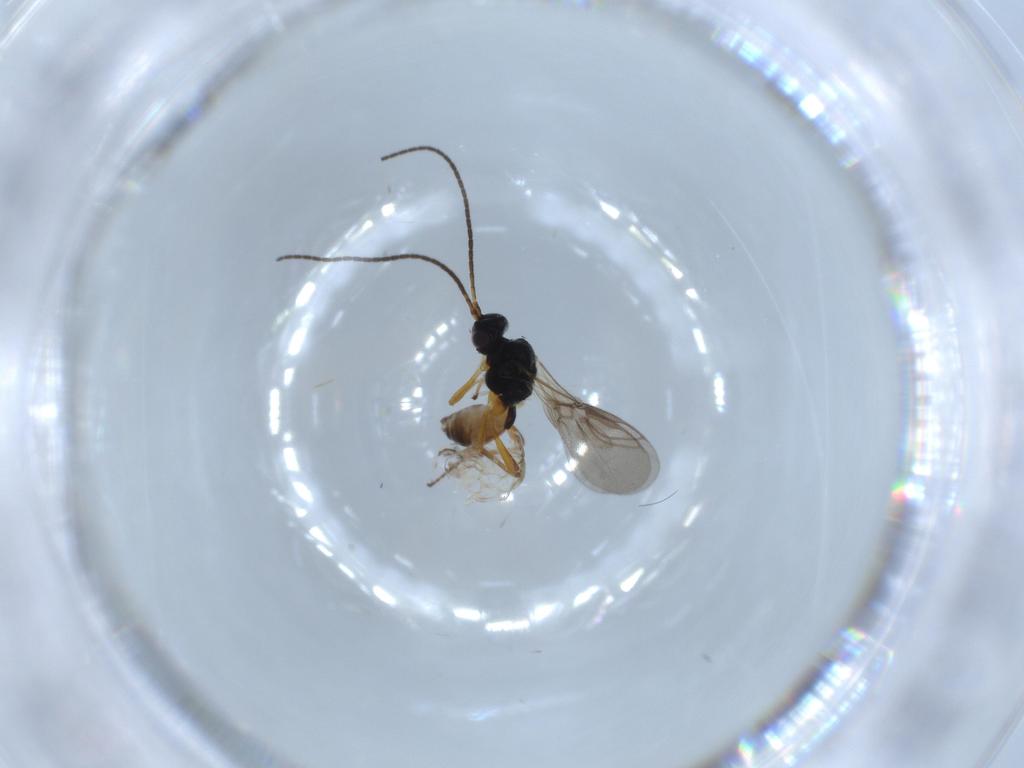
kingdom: Animalia
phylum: Arthropoda
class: Insecta
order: Hymenoptera
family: Braconidae
